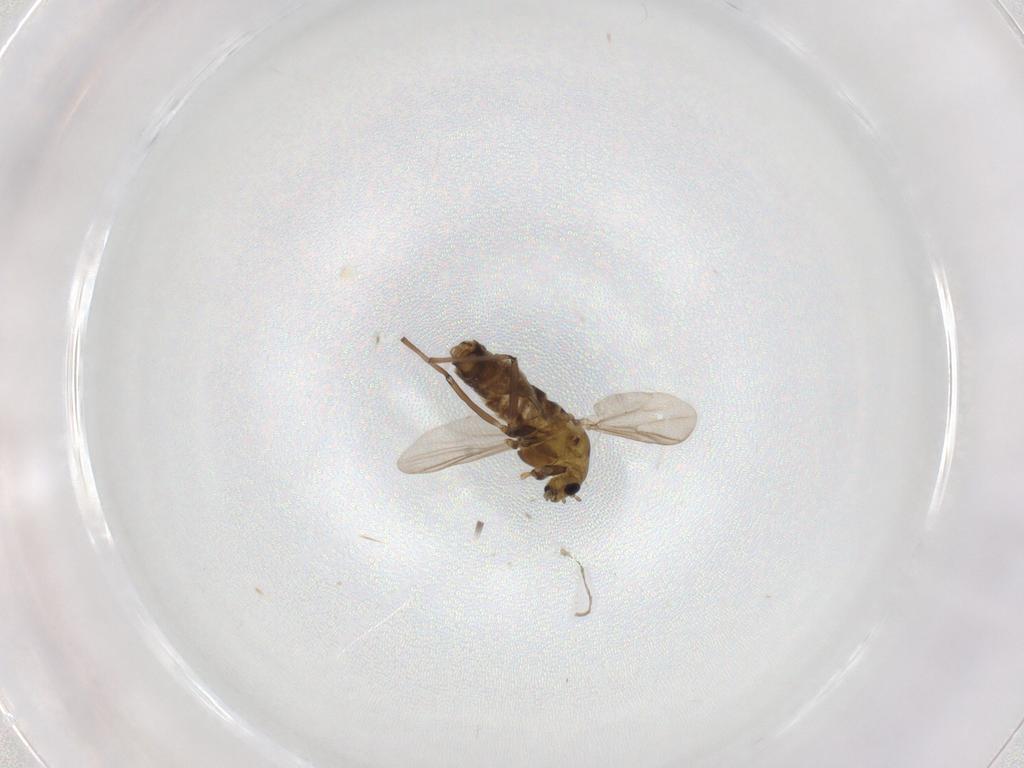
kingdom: Animalia
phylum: Arthropoda
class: Insecta
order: Diptera
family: Chironomidae
